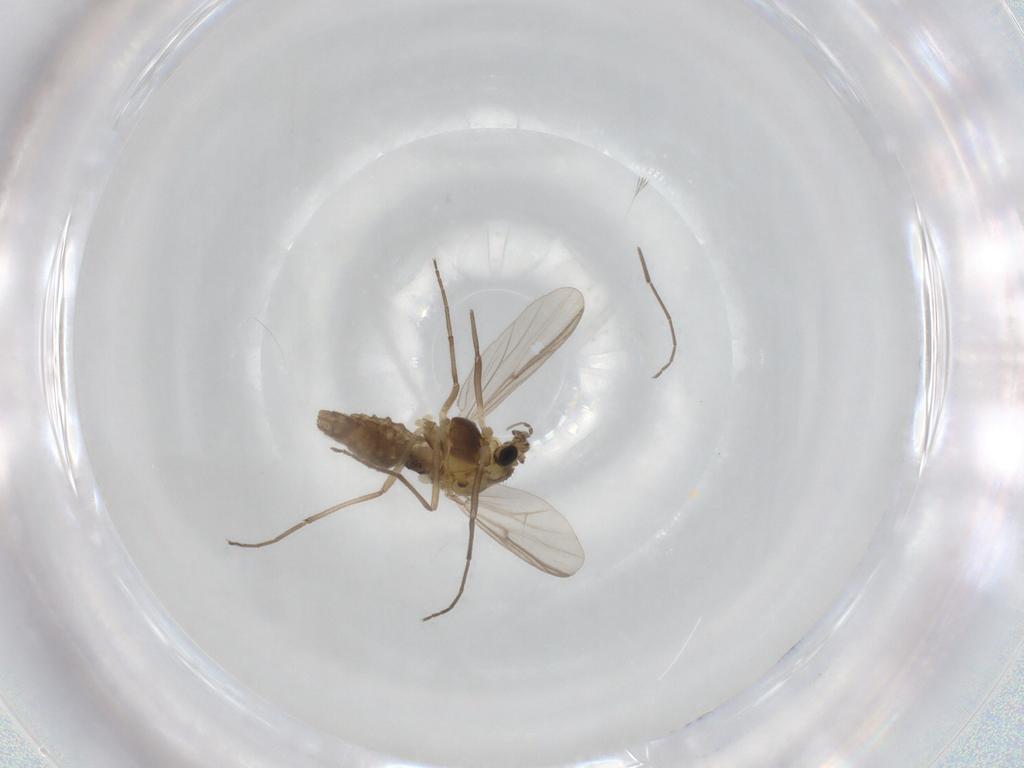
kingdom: Animalia
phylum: Arthropoda
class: Insecta
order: Diptera
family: Chironomidae
